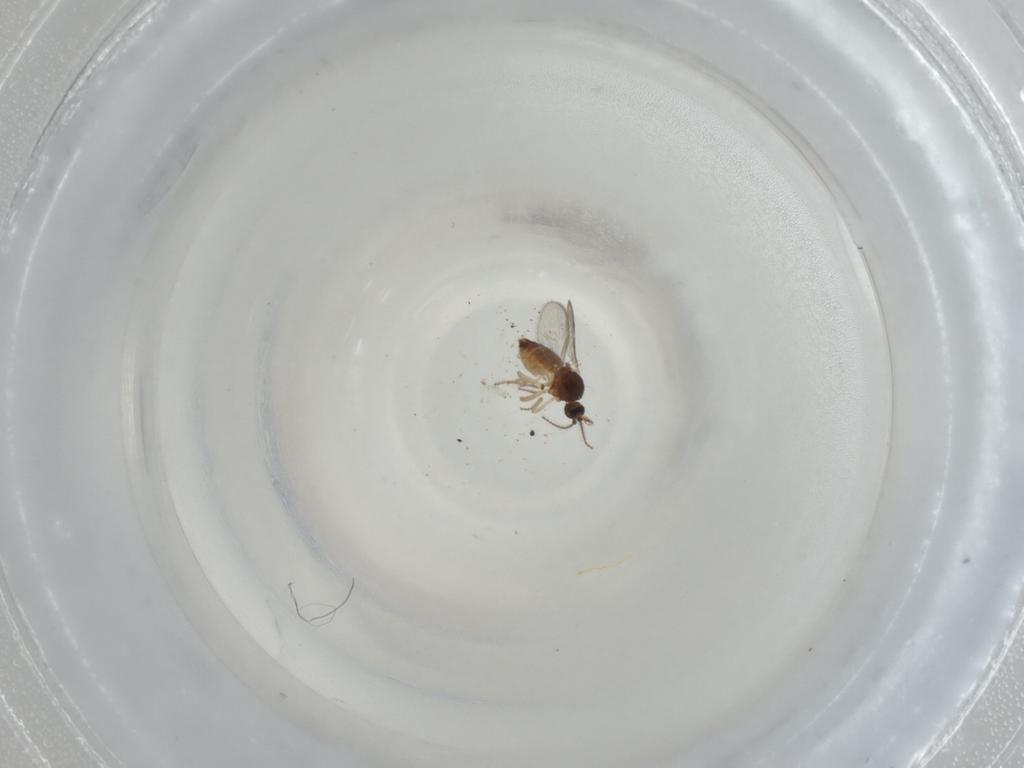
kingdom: Animalia
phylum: Arthropoda
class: Insecta
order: Diptera
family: Ceratopogonidae
